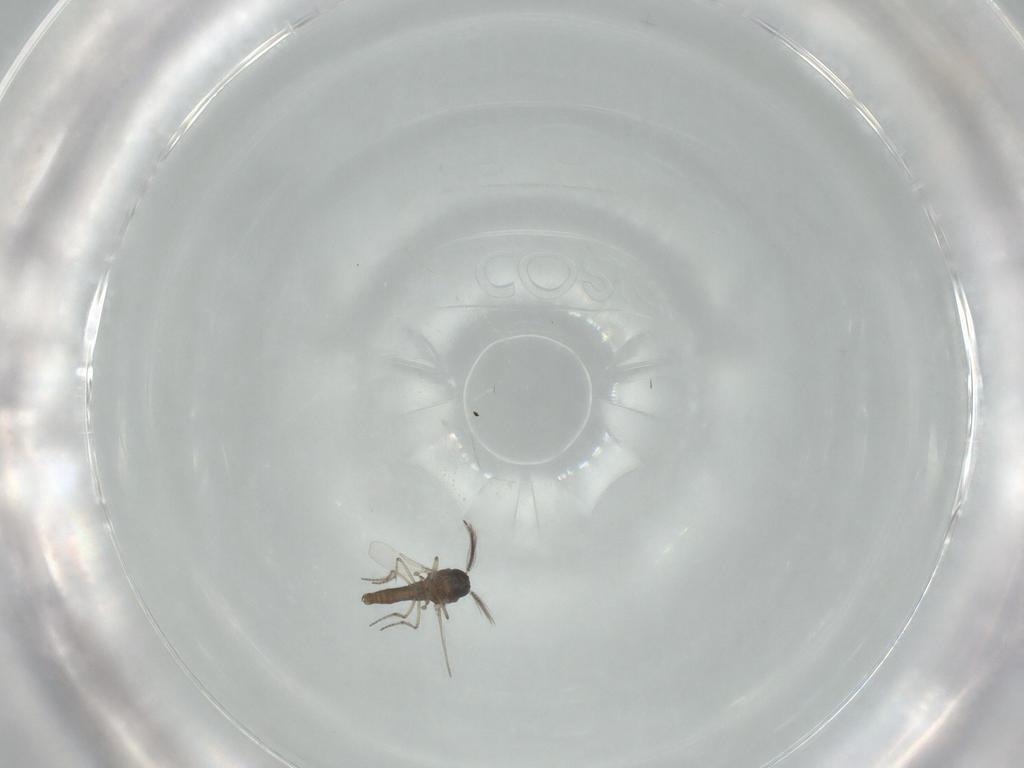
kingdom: Animalia
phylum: Arthropoda
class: Insecta
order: Diptera
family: Ceratopogonidae
